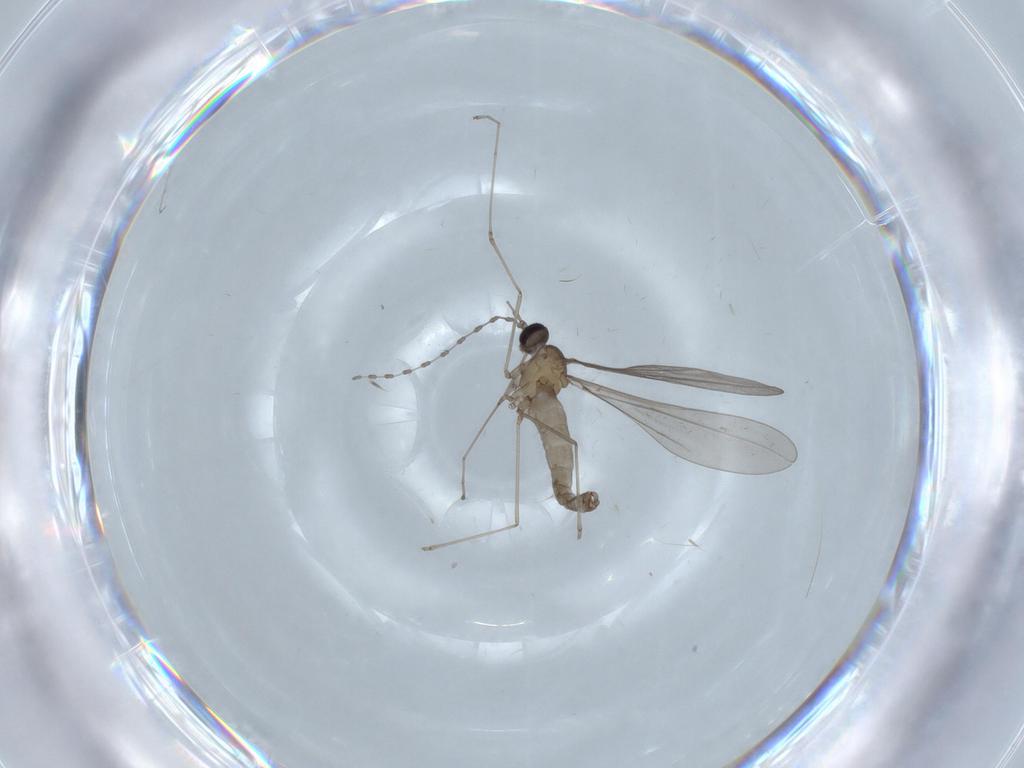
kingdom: Animalia
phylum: Arthropoda
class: Insecta
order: Diptera
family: Cecidomyiidae
